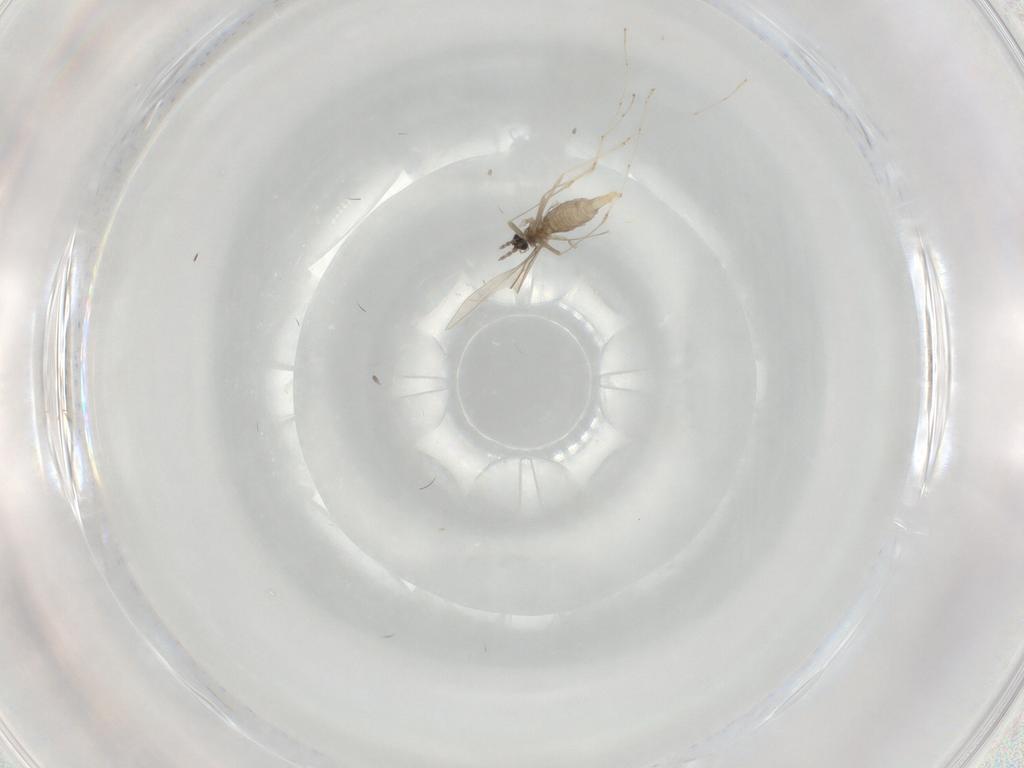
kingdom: Animalia
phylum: Arthropoda
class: Insecta
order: Diptera
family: Cecidomyiidae
